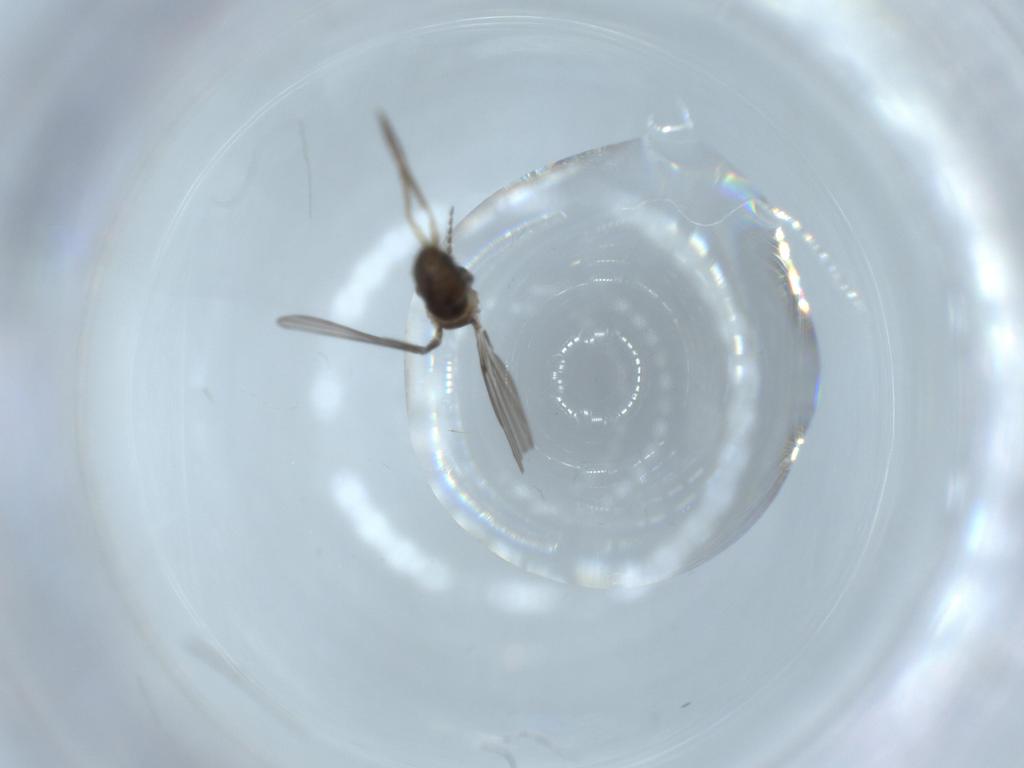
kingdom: Animalia
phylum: Arthropoda
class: Insecta
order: Diptera
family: Psychodidae
